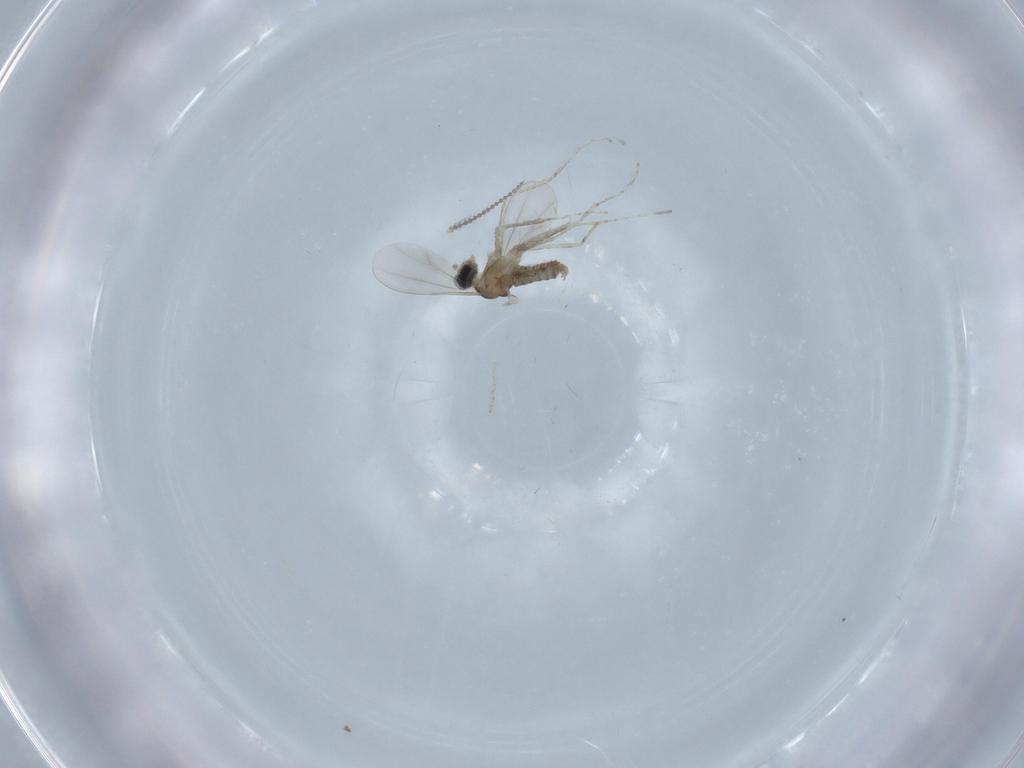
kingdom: Animalia
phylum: Arthropoda
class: Insecta
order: Diptera
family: Cecidomyiidae
